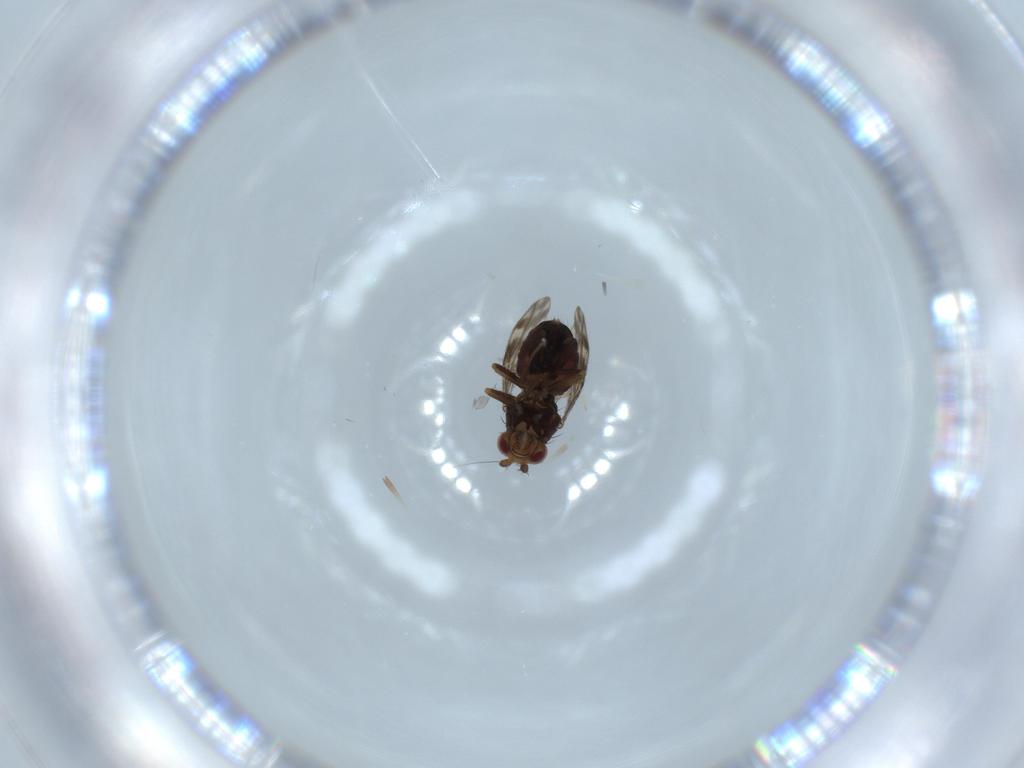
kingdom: Animalia
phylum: Arthropoda
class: Insecta
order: Diptera
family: Sphaeroceridae
